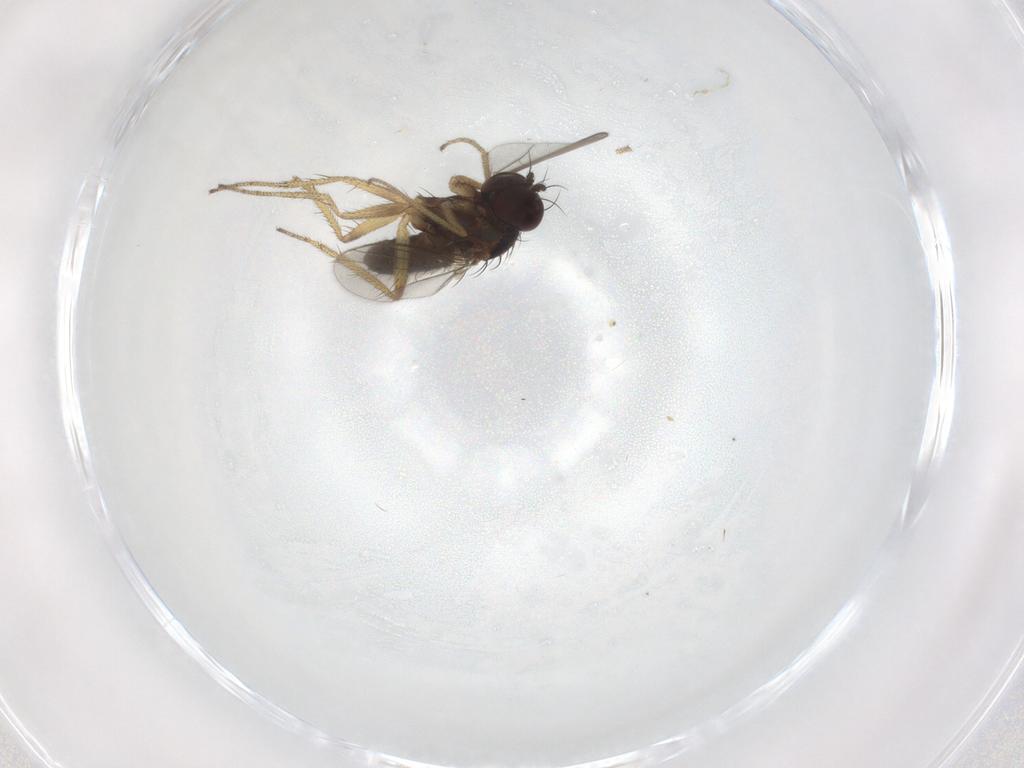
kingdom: Animalia
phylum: Arthropoda
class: Insecta
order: Diptera
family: Dolichopodidae
